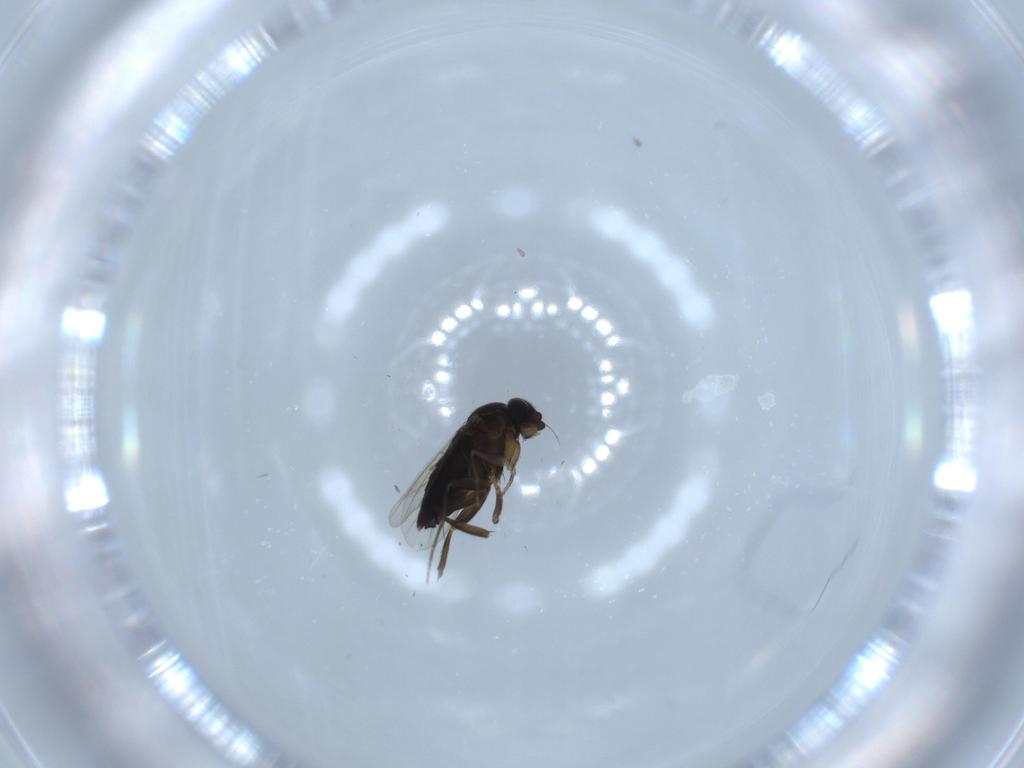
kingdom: Animalia
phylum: Arthropoda
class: Insecta
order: Diptera
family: Phoridae
